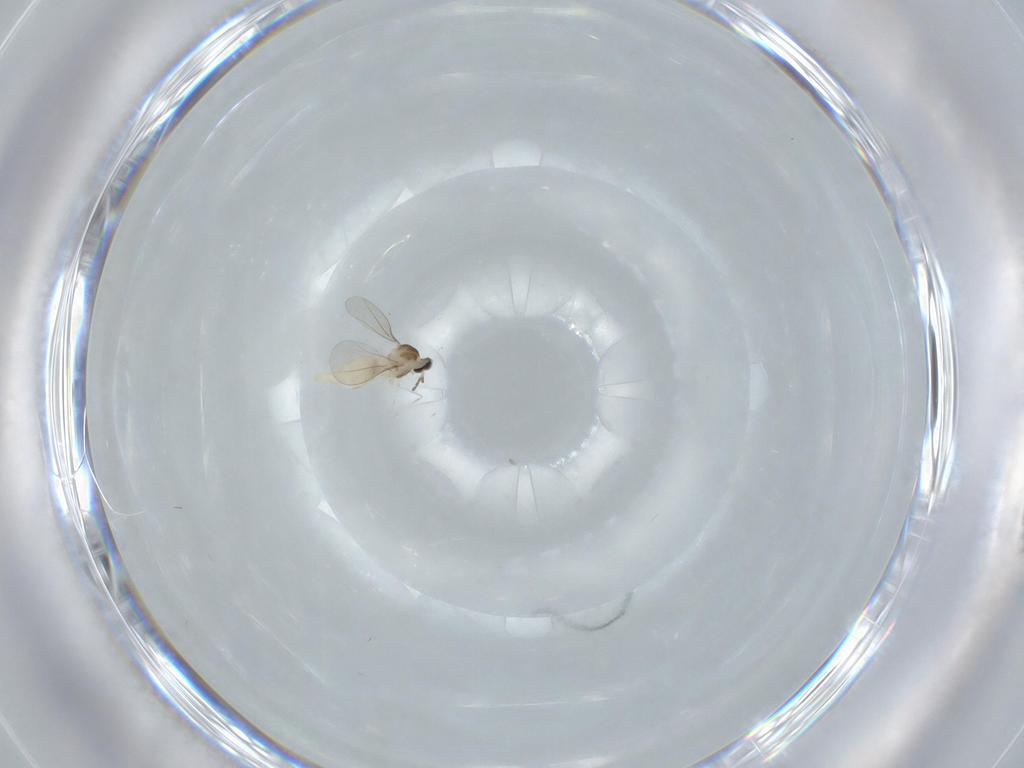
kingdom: Animalia
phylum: Arthropoda
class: Insecta
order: Diptera
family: Cecidomyiidae
